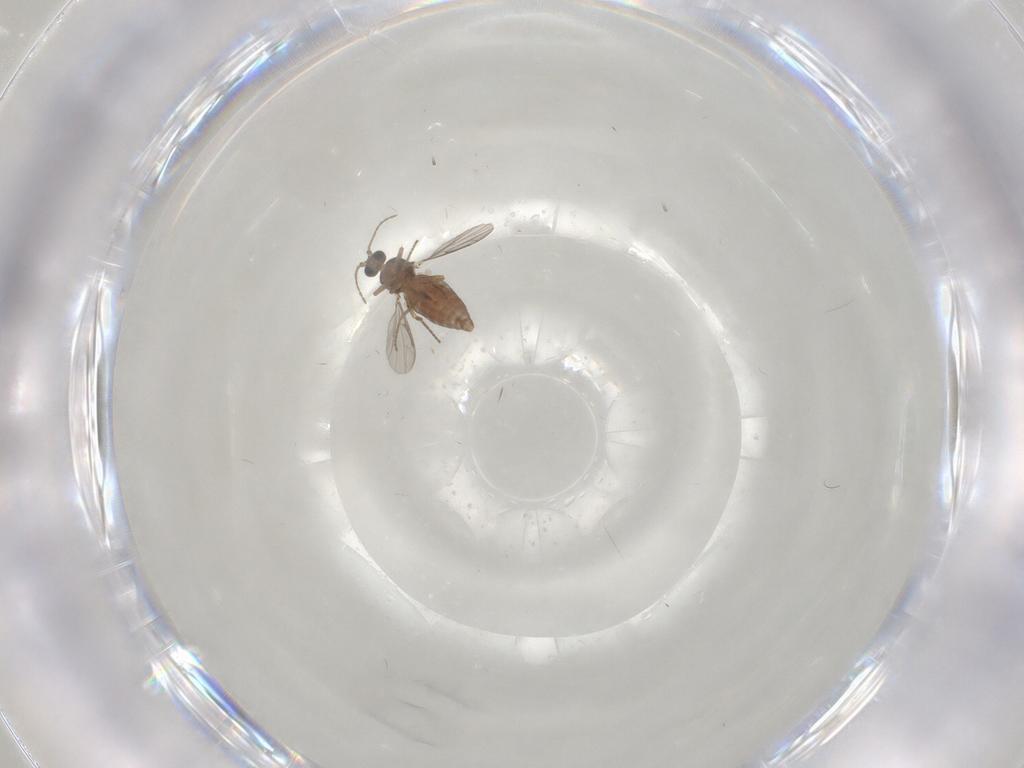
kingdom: Animalia
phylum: Arthropoda
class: Insecta
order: Diptera
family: Ceratopogonidae
